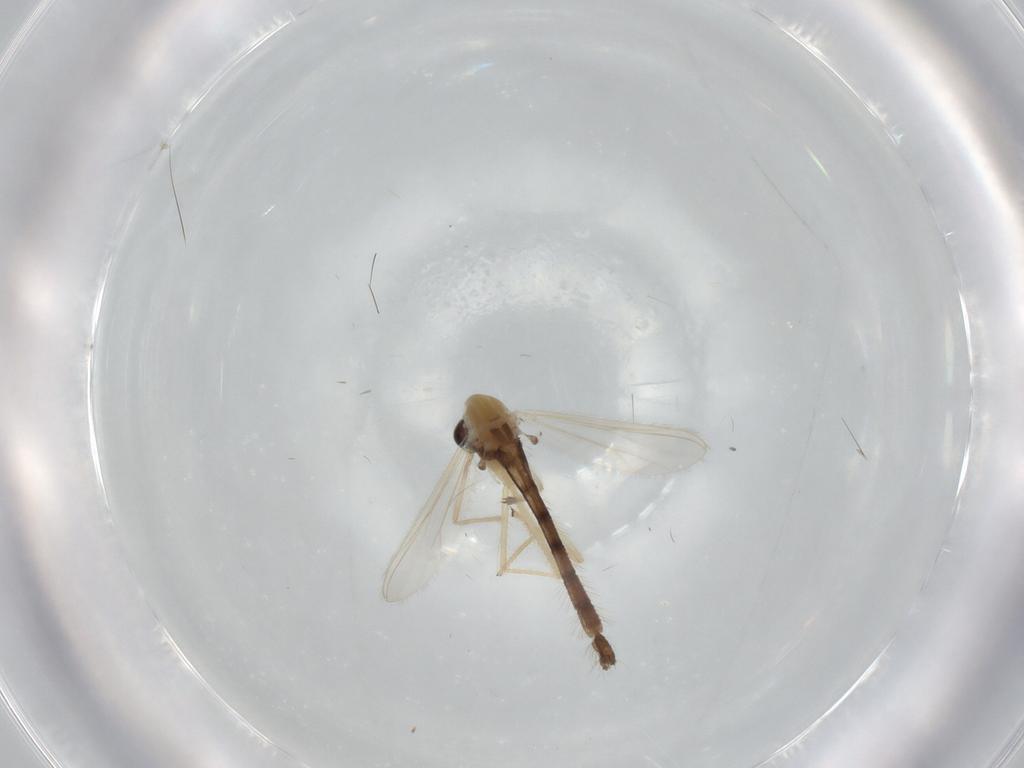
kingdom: Animalia
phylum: Arthropoda
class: Insecta
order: Diptera
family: Chironomidae
